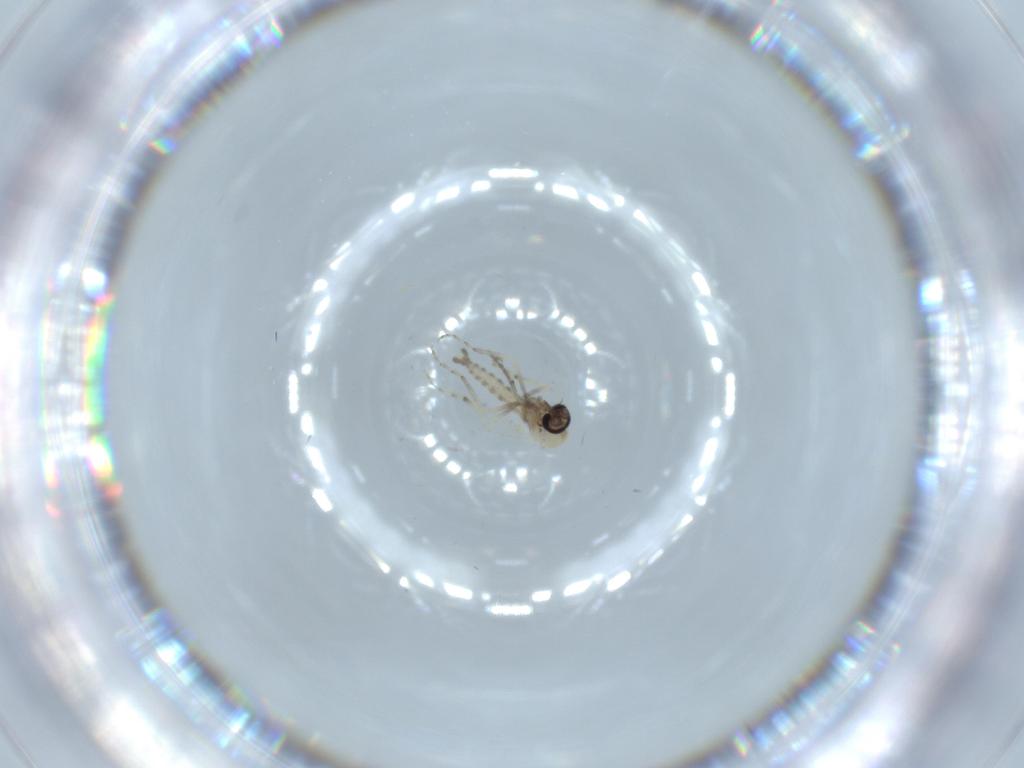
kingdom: Animalia
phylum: Arthropoda
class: Insecta
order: Diptera
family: Ceratopogonidae
